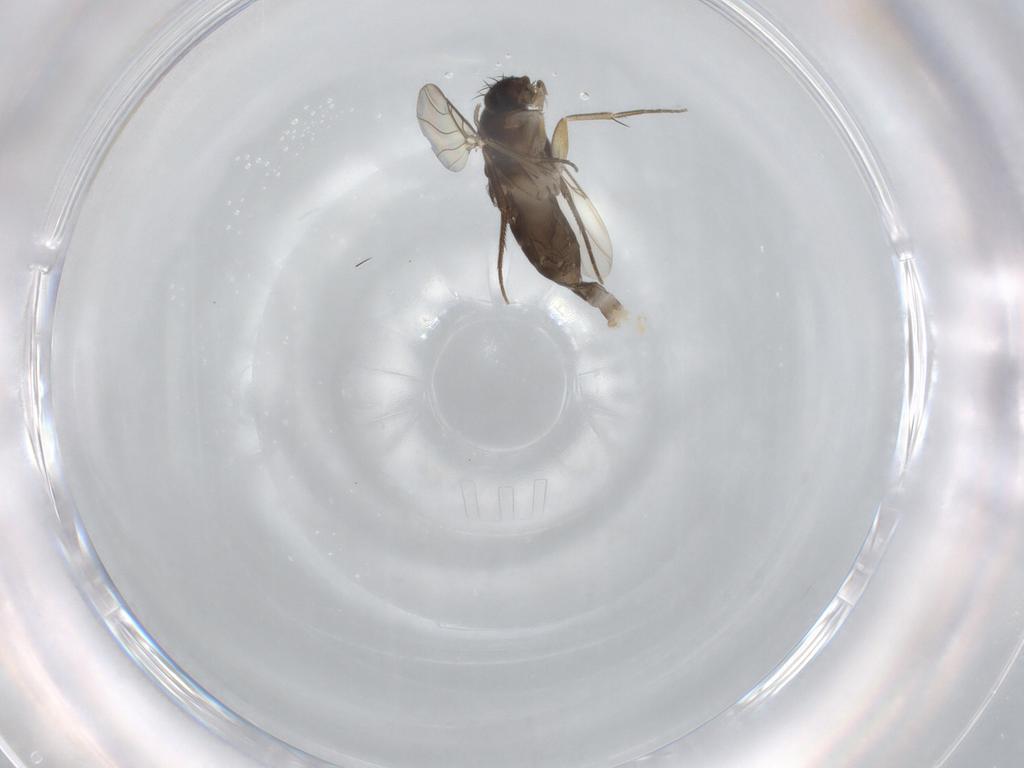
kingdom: Animalia
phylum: Arthropoda
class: Insecta
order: Diptera
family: Phoridae
